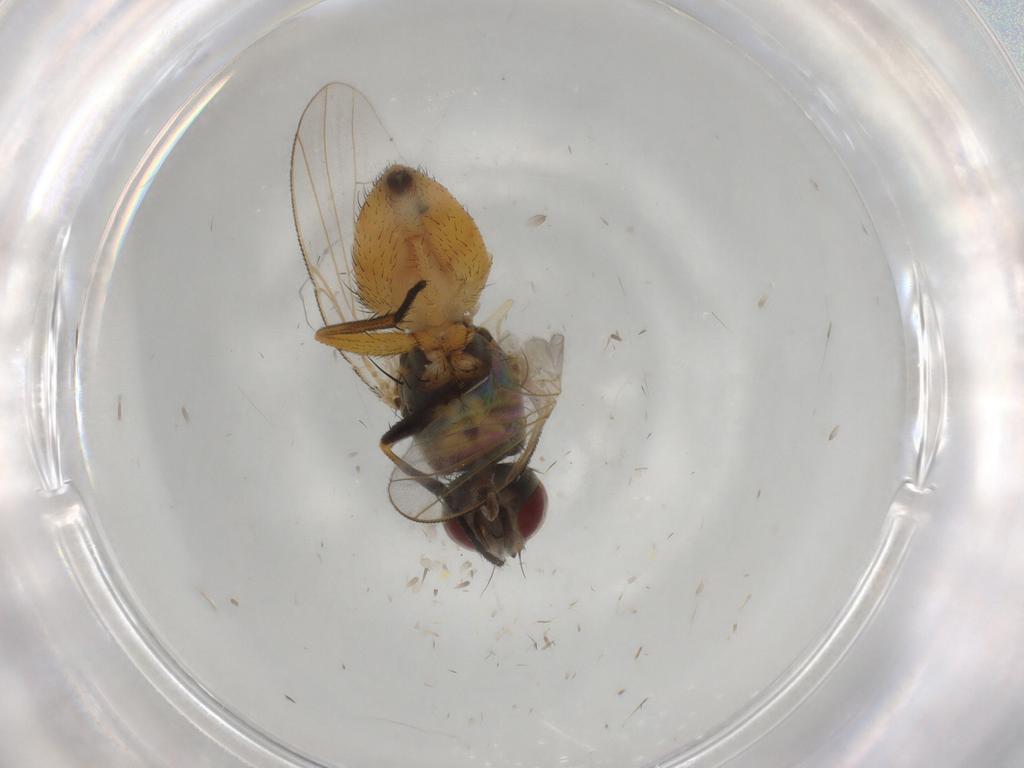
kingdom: Animalia
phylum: Arthropoda
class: Insecta
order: Diptera
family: Muscidae
